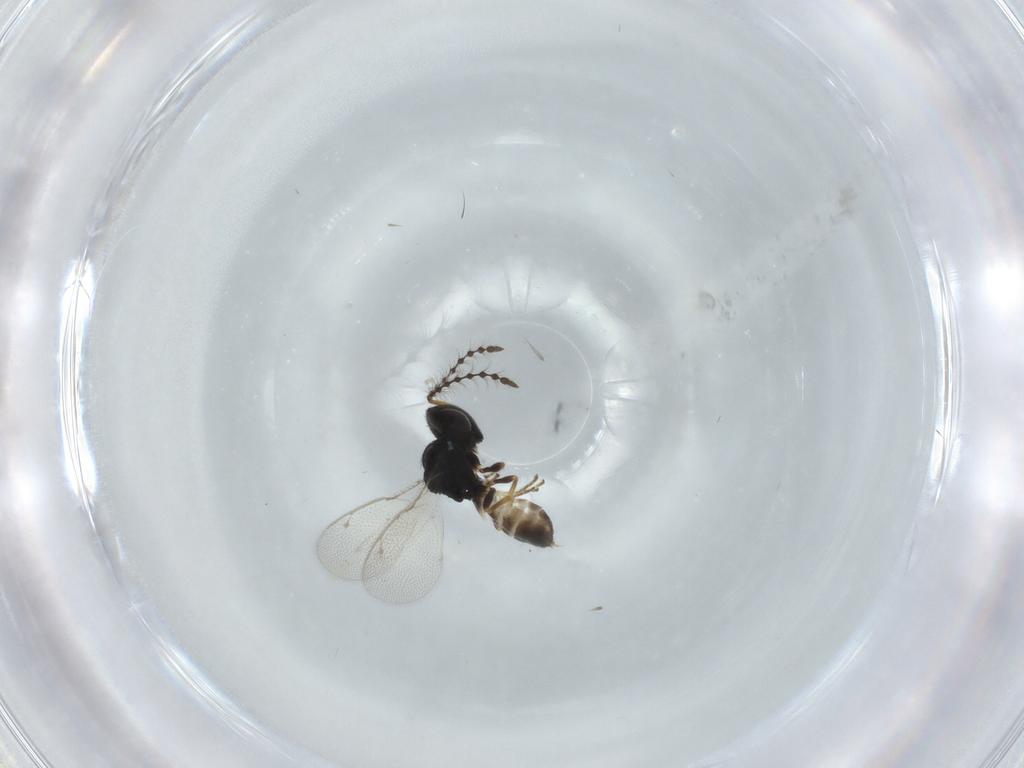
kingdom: Animalia
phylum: Arthropoda
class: Insecta
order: Hymenoptera
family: Pteromalidae
